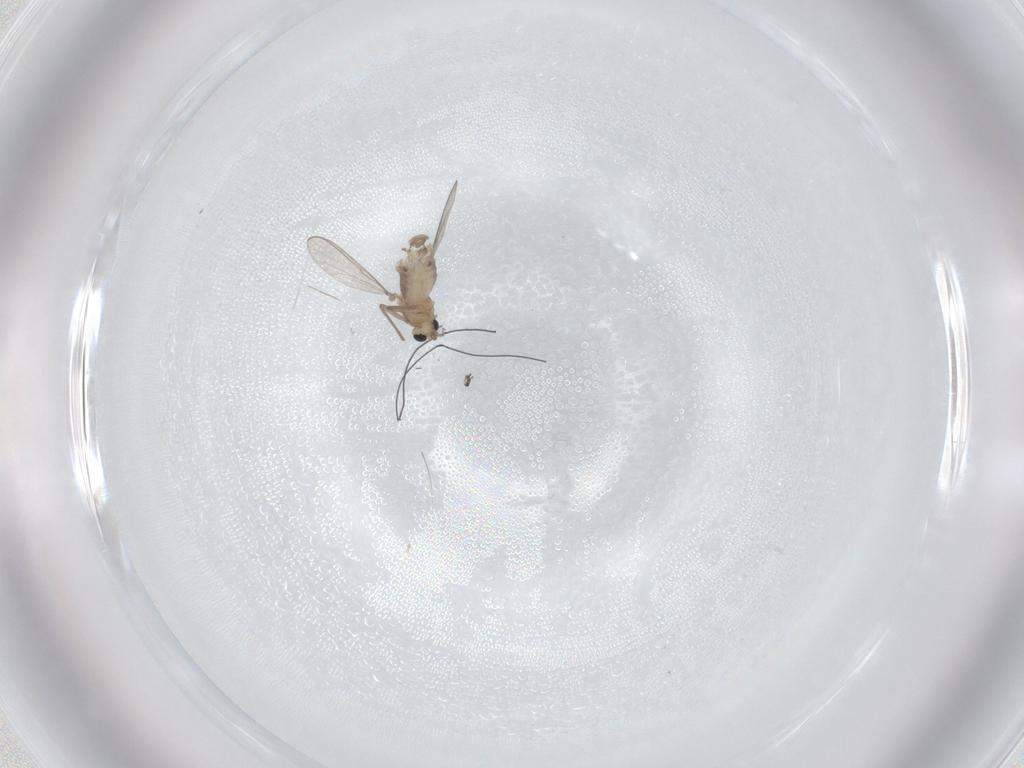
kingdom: Animalia
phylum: Arthropoda
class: Insecta
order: Diptera
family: Chironomidae
